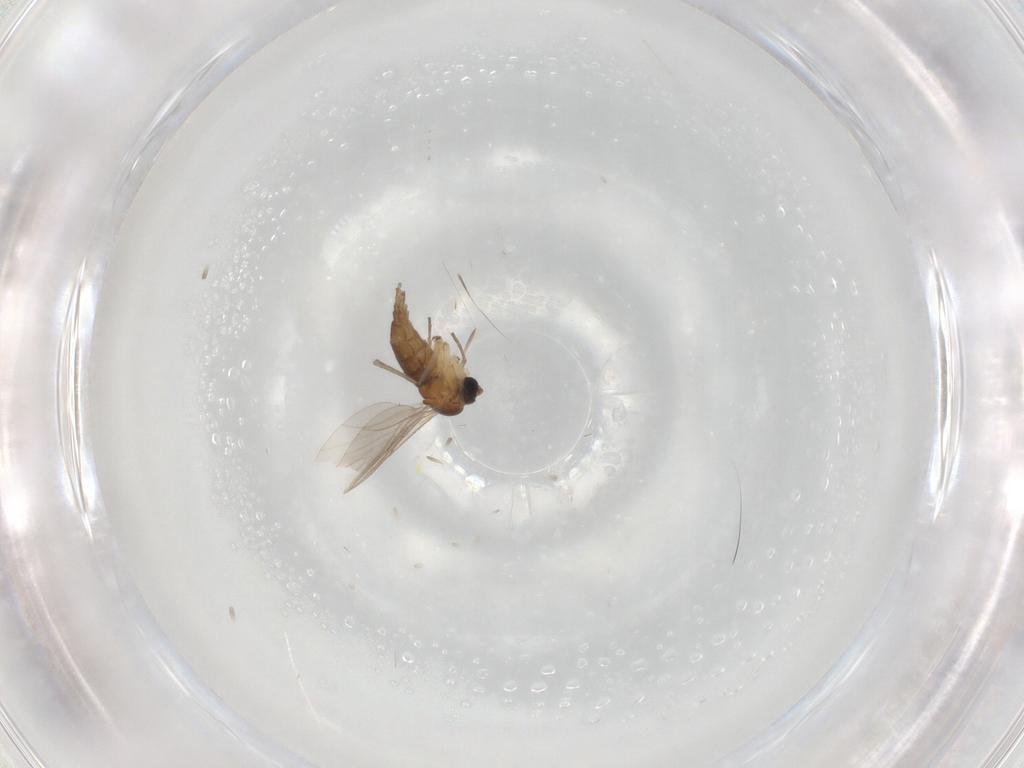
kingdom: Animalia
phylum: Arthropoda
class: Insecta
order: Diptera
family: Sciaridae
